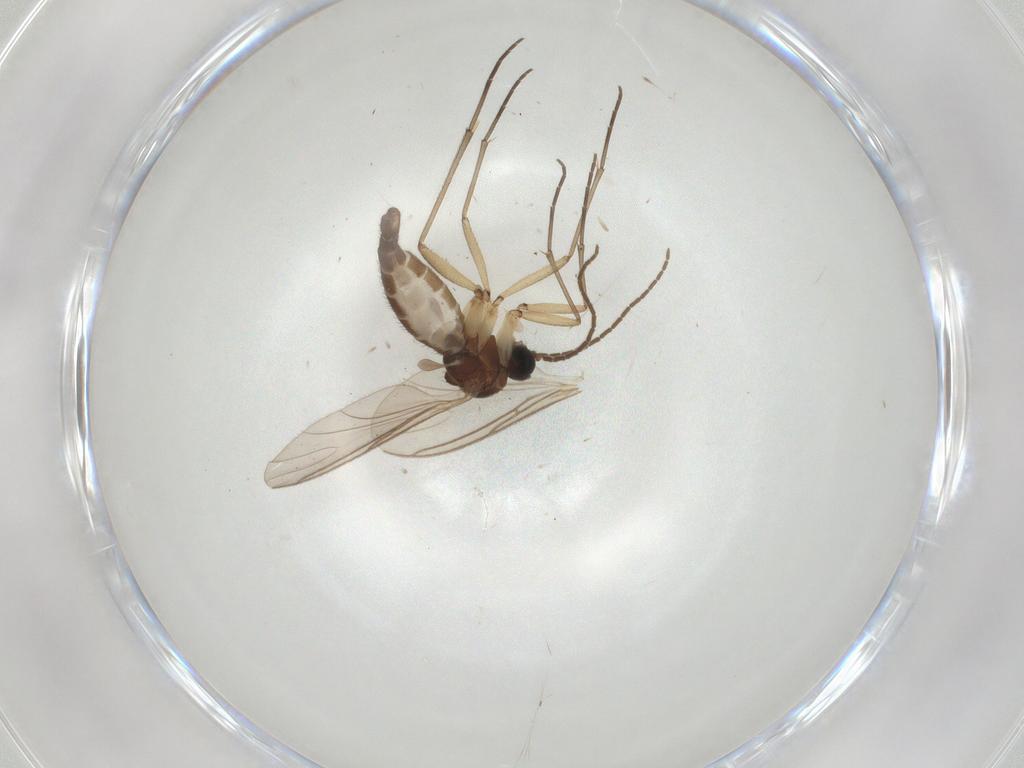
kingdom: Animalia
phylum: Arthropoda
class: Insecta
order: Diptera
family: Sciaridae
